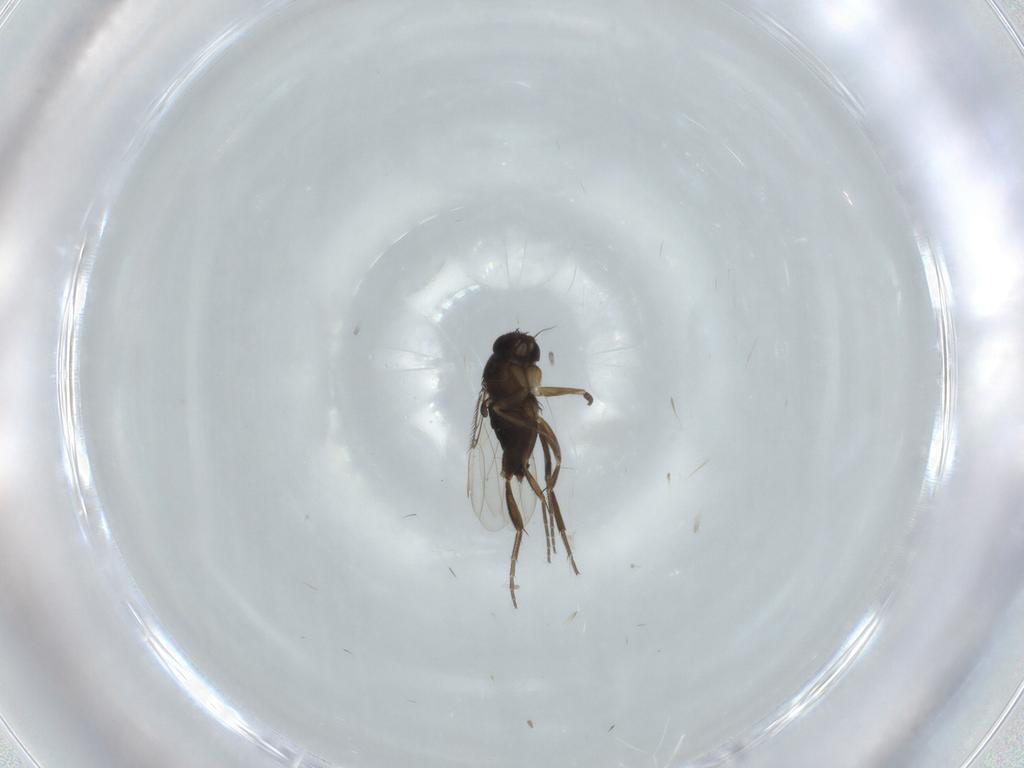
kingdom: Animalia
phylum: Arthropoda
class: Insecta
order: Diptera
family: Phoridae
